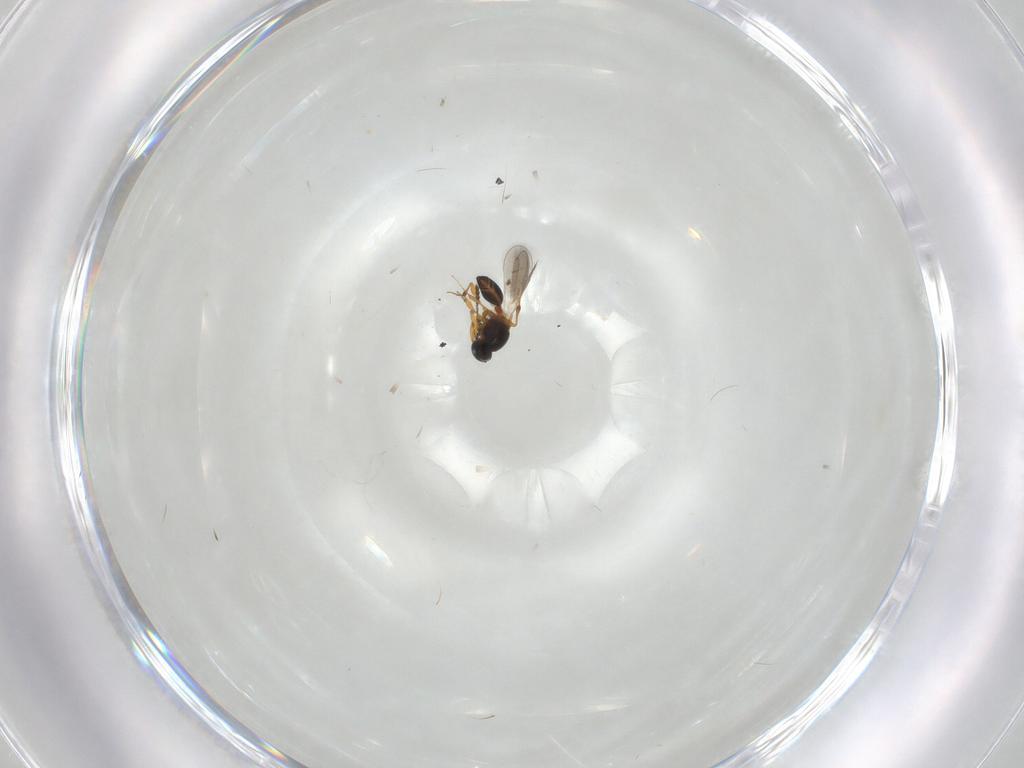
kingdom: Animalia
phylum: Arthropoda
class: Insecta
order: Hymenoptera
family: Platygastridae
